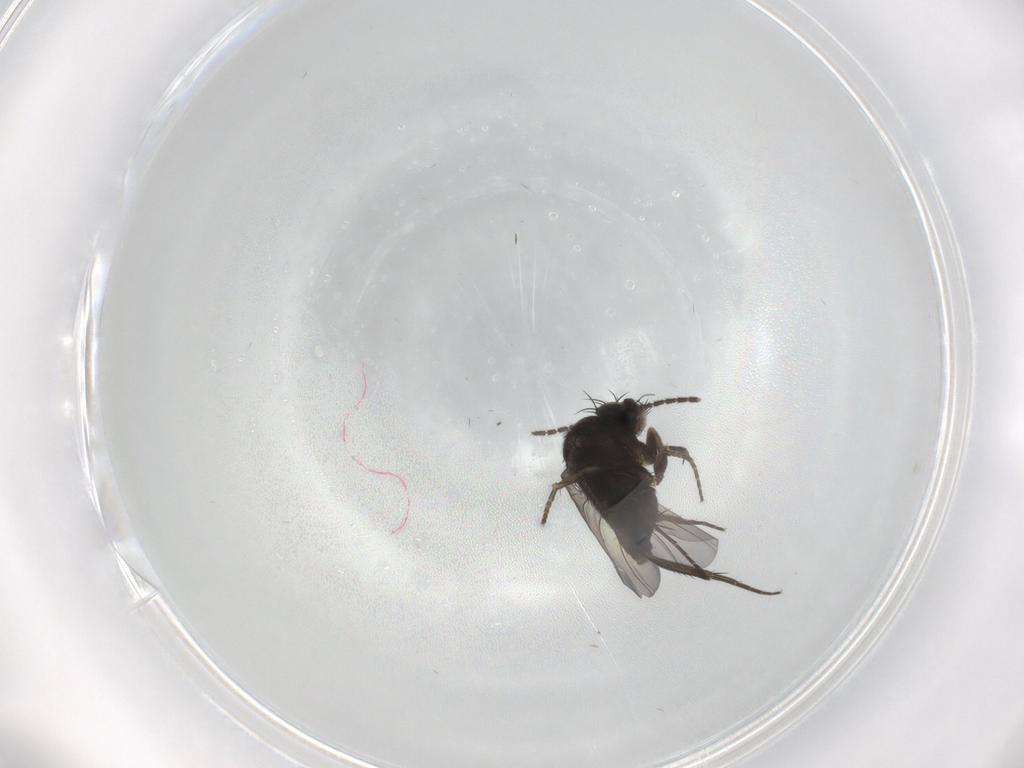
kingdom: Animalia
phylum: Arthropoda
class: Insecta
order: Diptera
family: Phoridae
